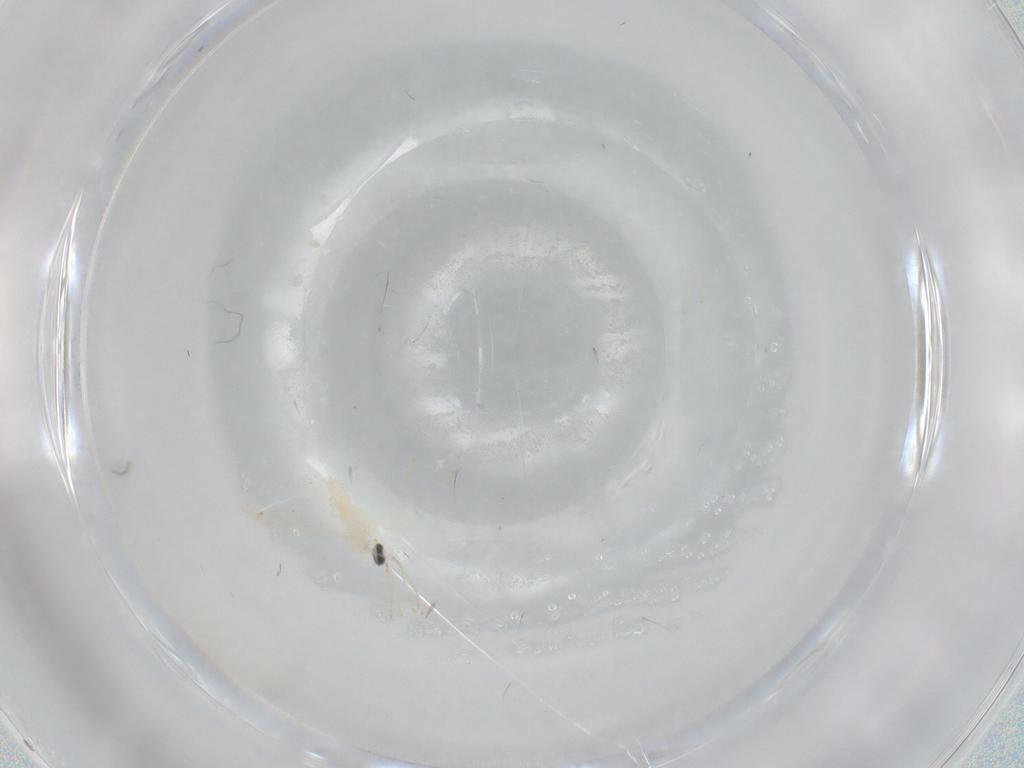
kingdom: Animalia
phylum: Arthropoda
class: Insecta
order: Diptera
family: Cecidomyiidae
